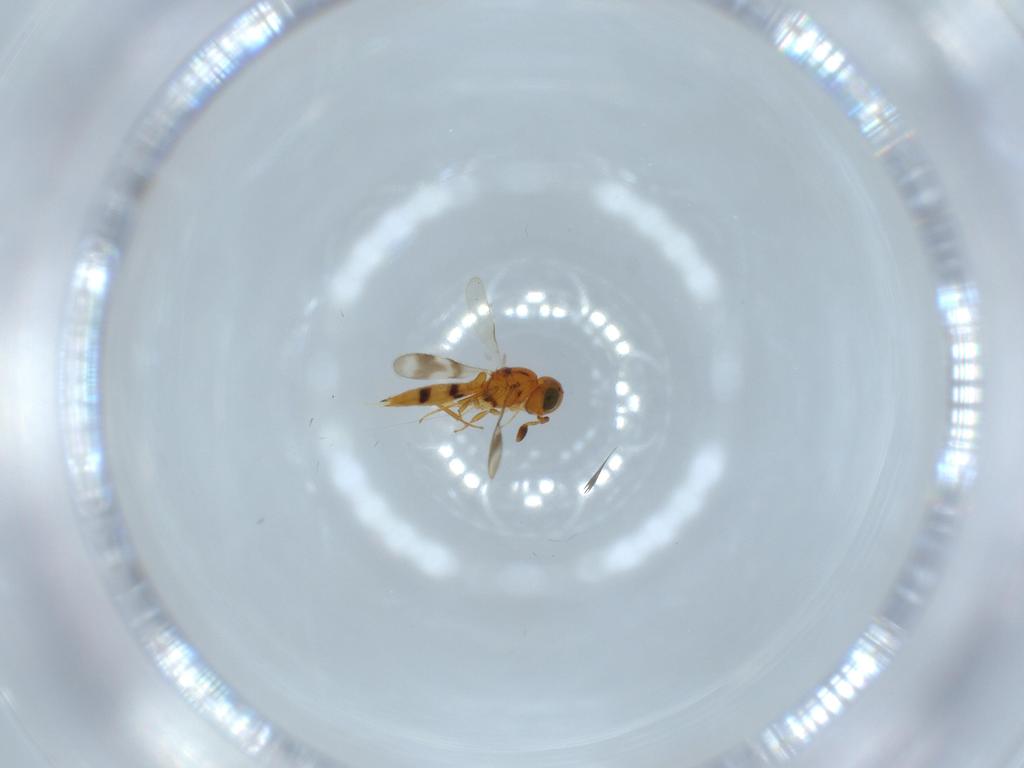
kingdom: Animalia
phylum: Arthropoda
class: Insecta
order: Hymenoptera
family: Scelionidae
